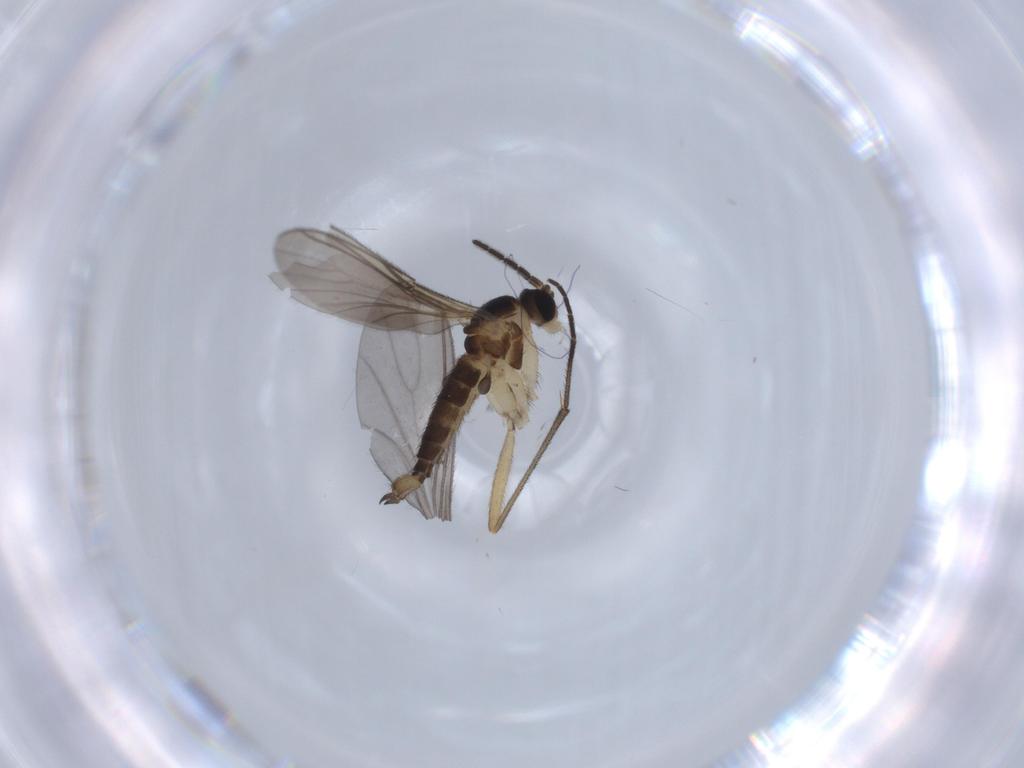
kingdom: Animalia
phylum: Arthropoda
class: Insecta
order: Diptera
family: Sciaridae
